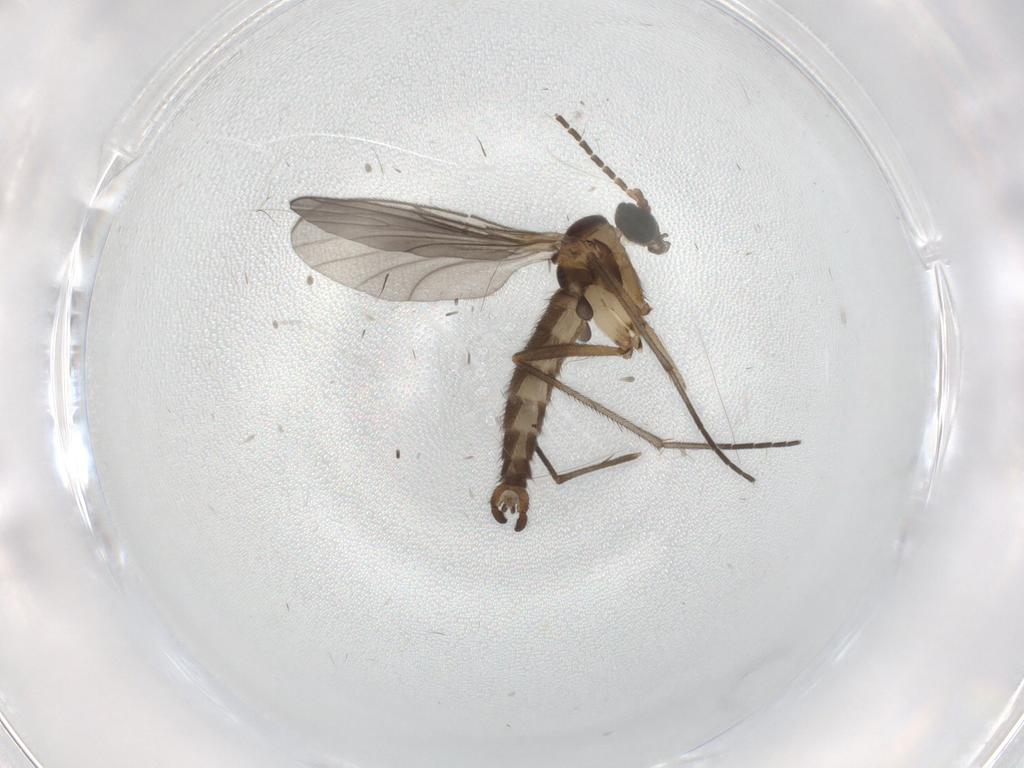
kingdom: Animalia
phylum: Arthropoda
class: Insecta
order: Diptera
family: Sciaridae
